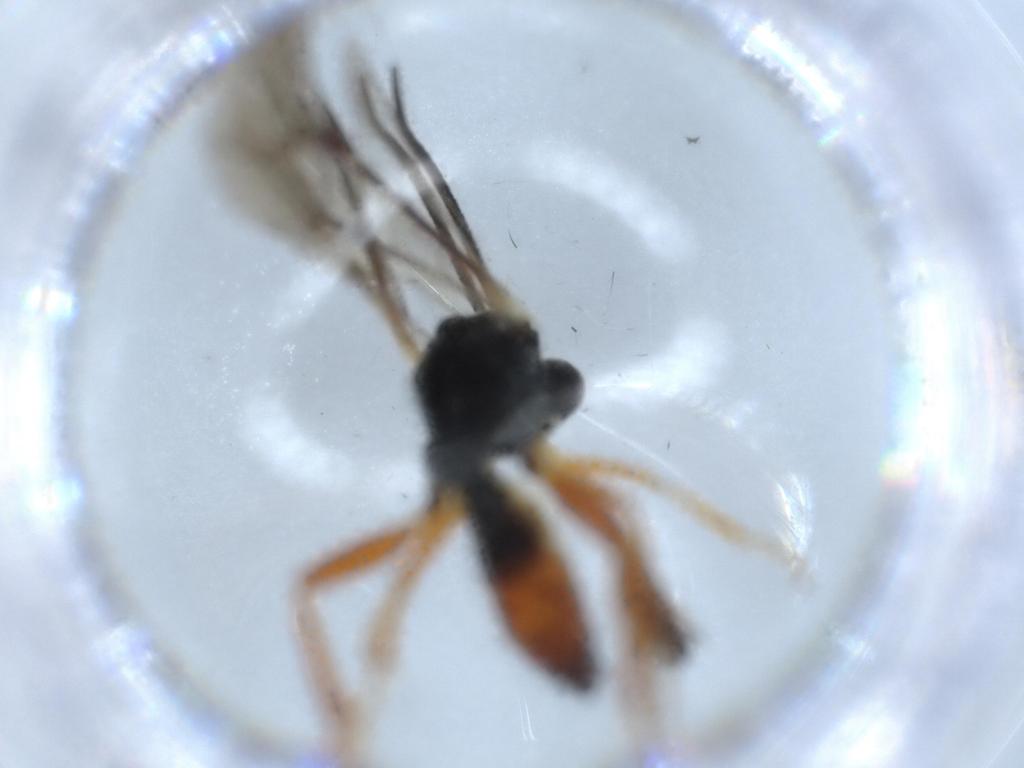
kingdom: Animalia
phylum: Arthropoda
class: Insecta
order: Hymenoptera
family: Ichneumonidae
